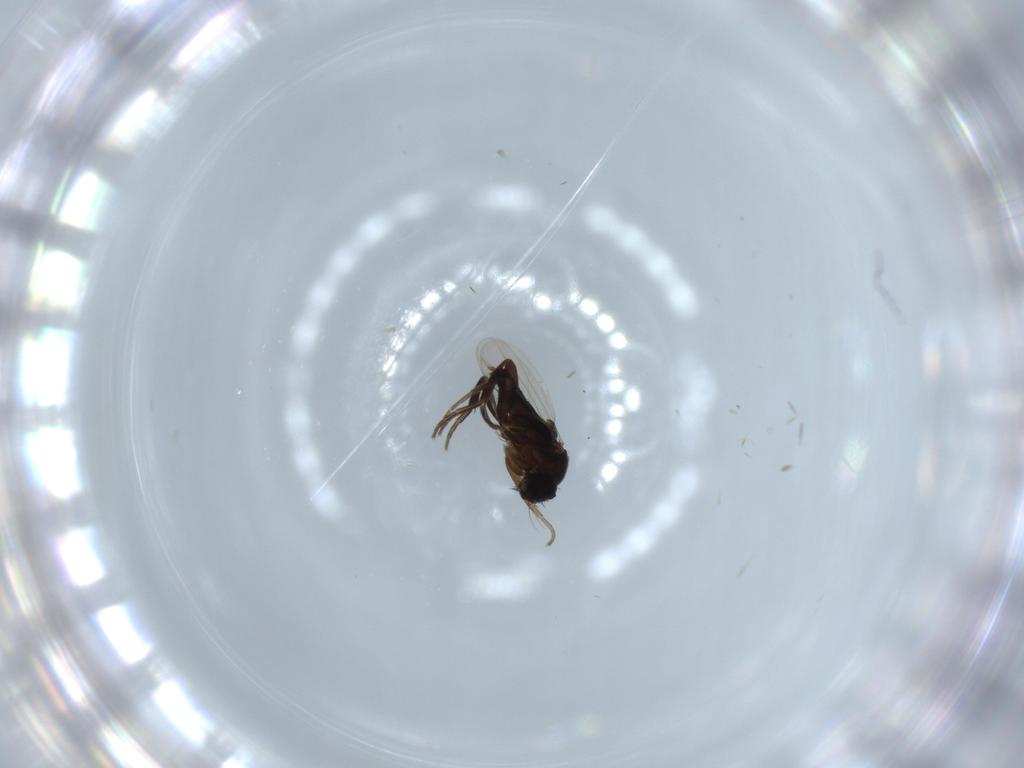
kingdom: Animalia
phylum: Arthropoda
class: Insecta
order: Diptera
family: Phoridae
